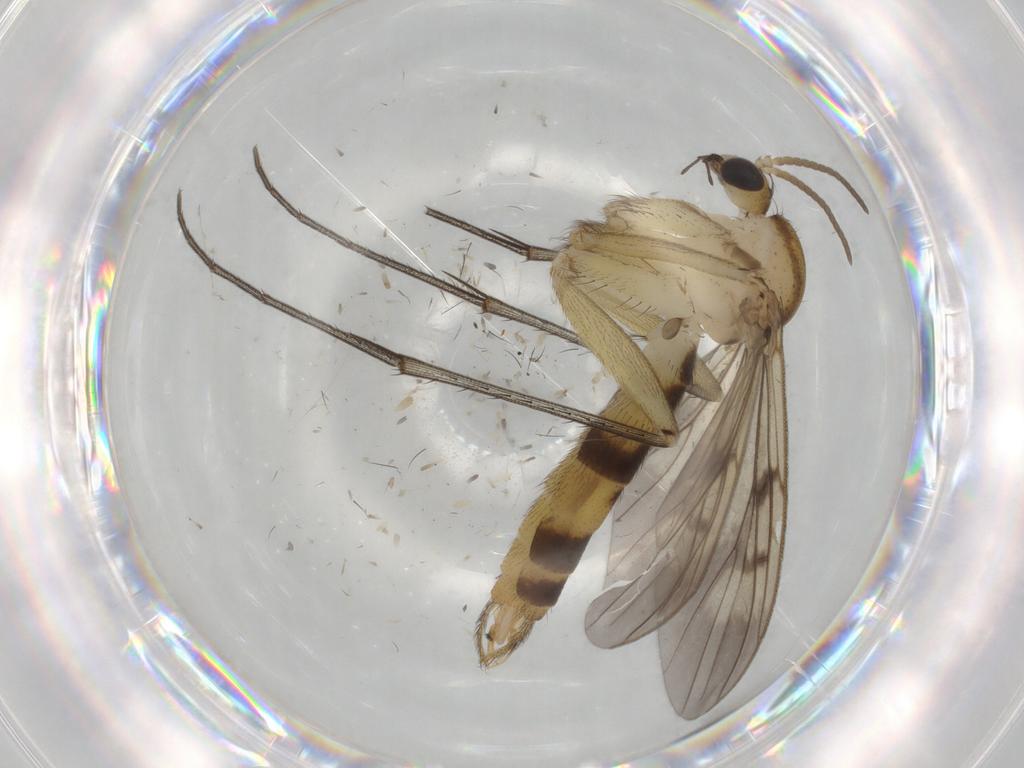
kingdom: Animalia
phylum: Arthropoda
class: Insecta
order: Diptera
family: Mycetophilidae
